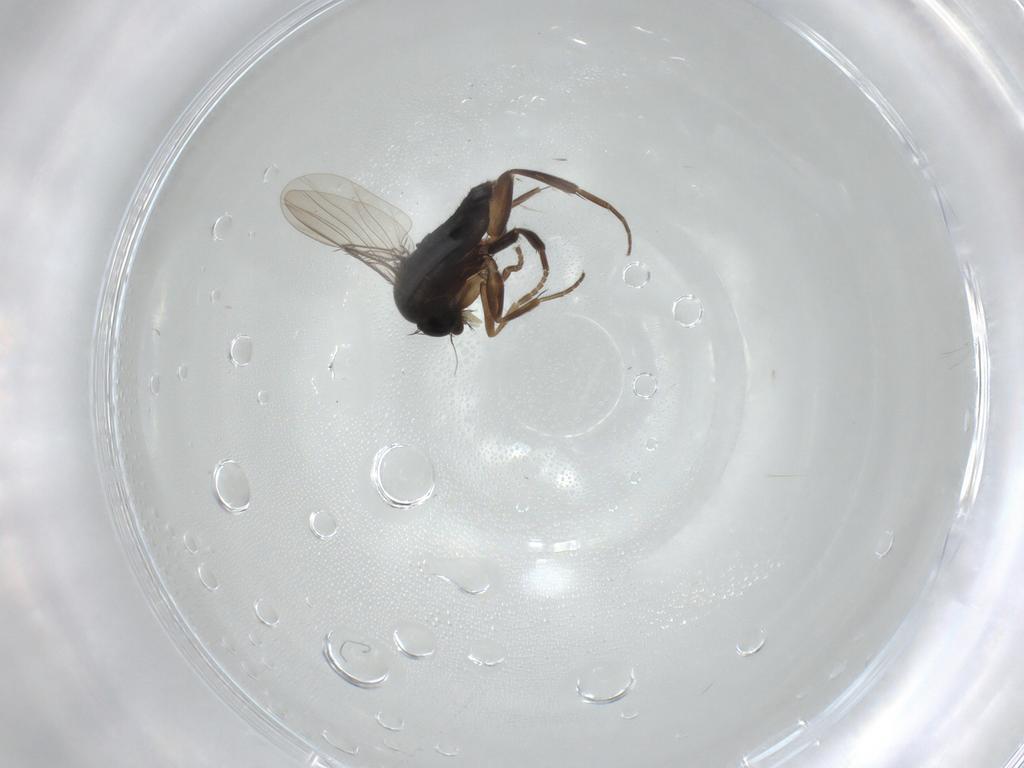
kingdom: Animalia
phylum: Arthropoda
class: Insecta
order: Diptera
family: Phoridae
